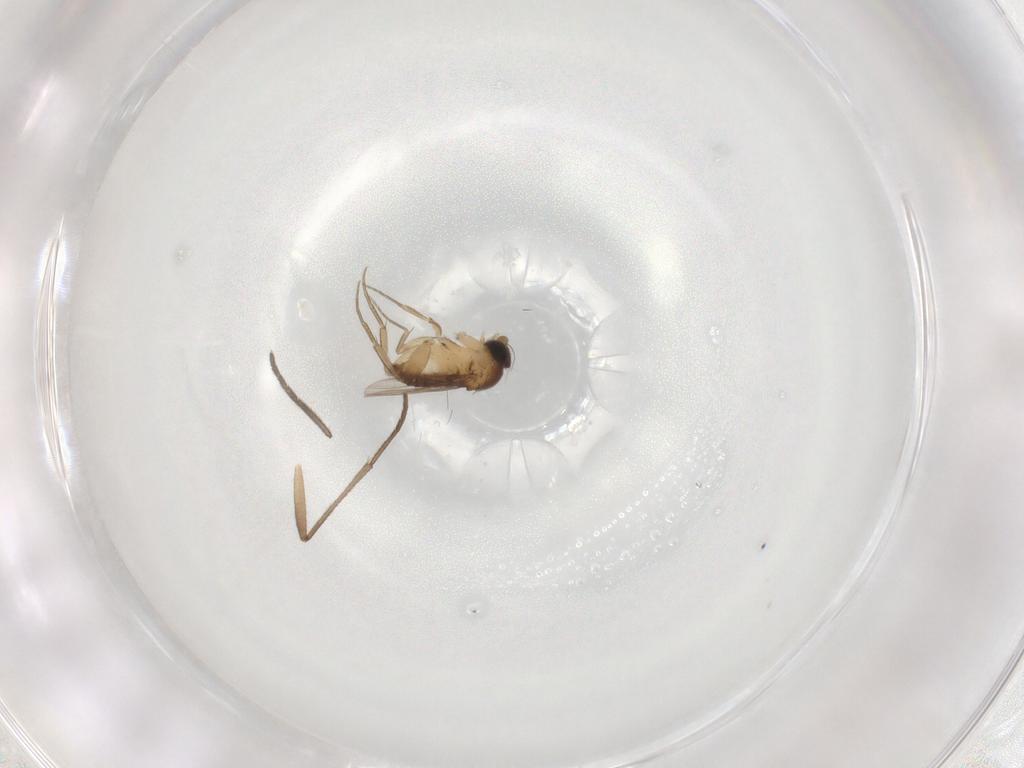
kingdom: Animalia
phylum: Arthropoda
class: Insecta
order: Diptera
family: Phoridae
